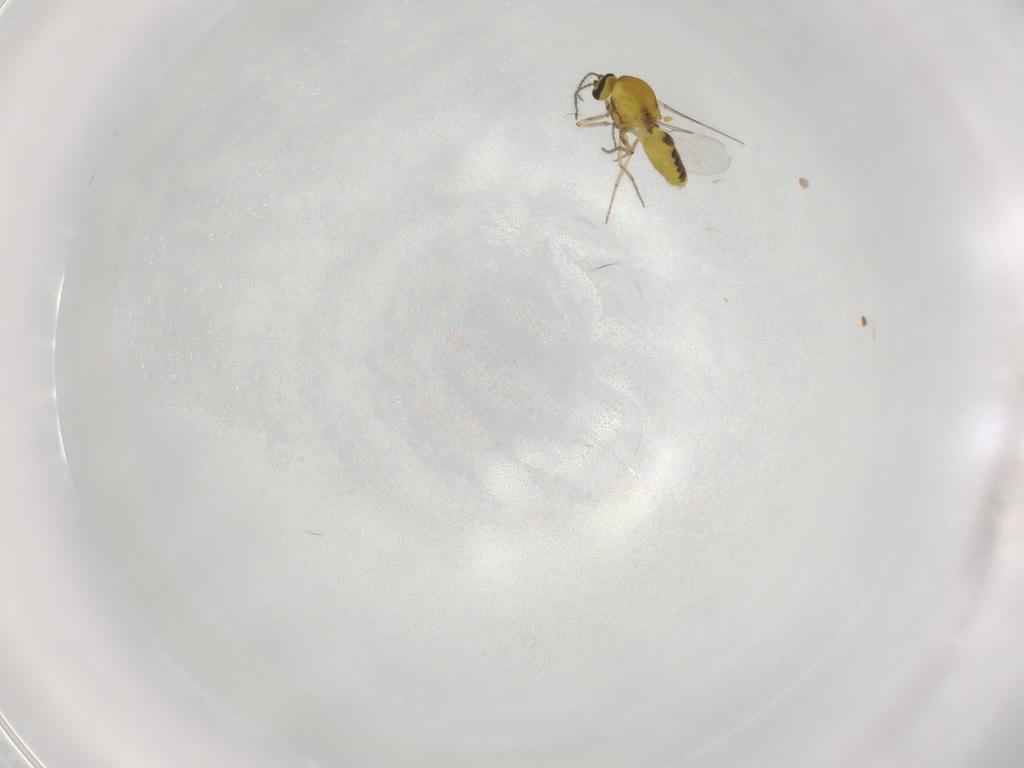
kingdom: Animalia
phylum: Arthropoda
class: Insecta
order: Diptera
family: Ceratopogonidae
